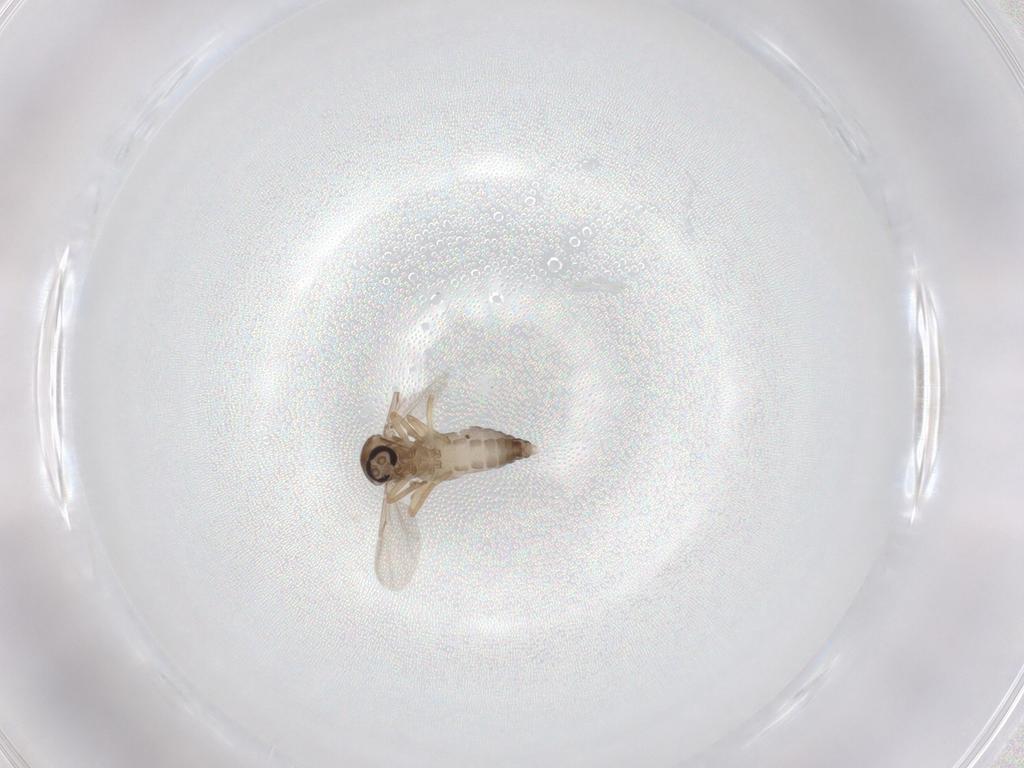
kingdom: Animalia
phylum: Arthropoda
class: Insecta
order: Diptera
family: Ceratopogonidae
